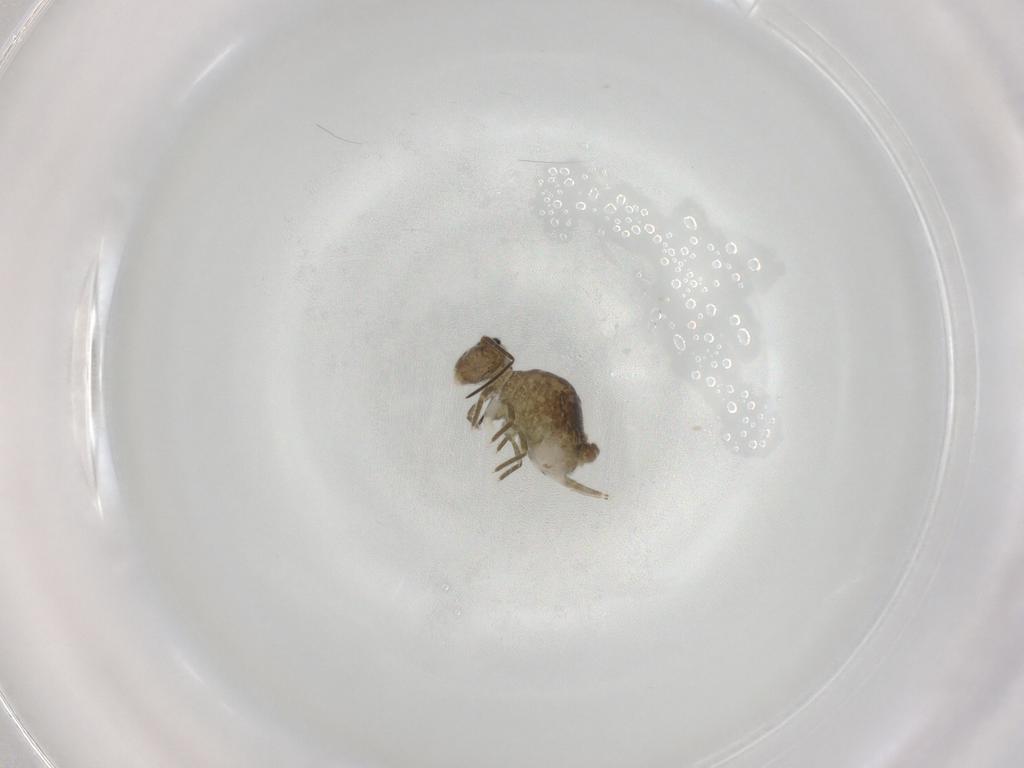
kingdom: Animalia
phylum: Arthropoda
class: Collembola
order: Symphypleona
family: Sminthuridae
